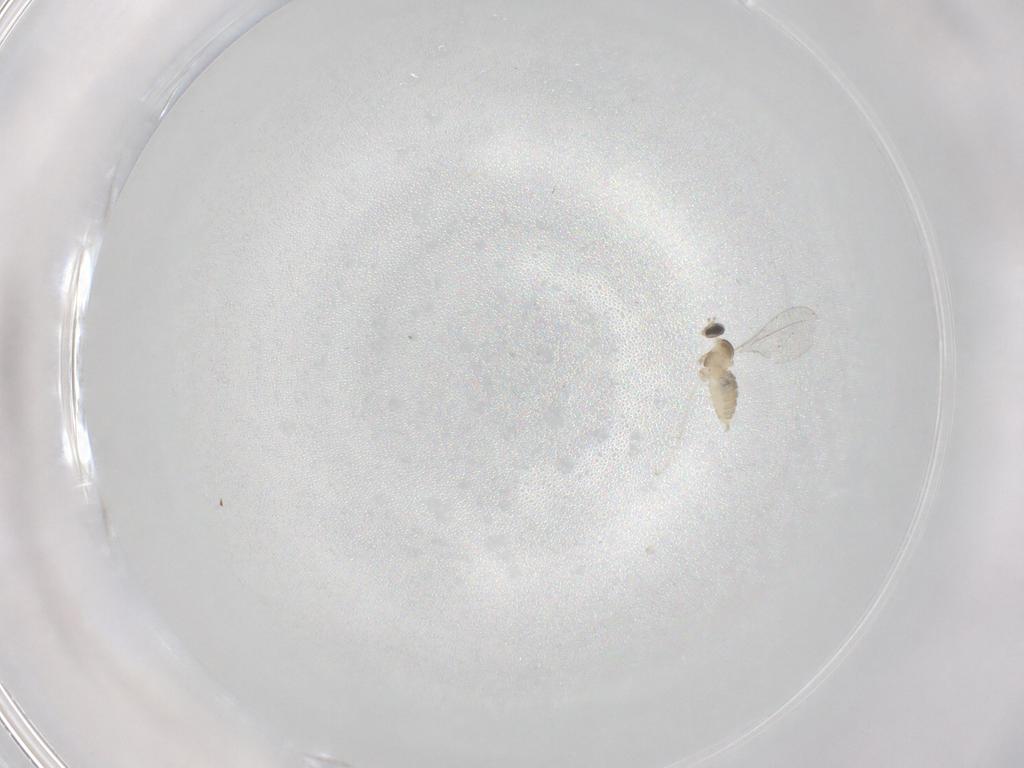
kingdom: Animalia
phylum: Arthropoda
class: Insecta
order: Diptera
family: Cecidomyiidae
